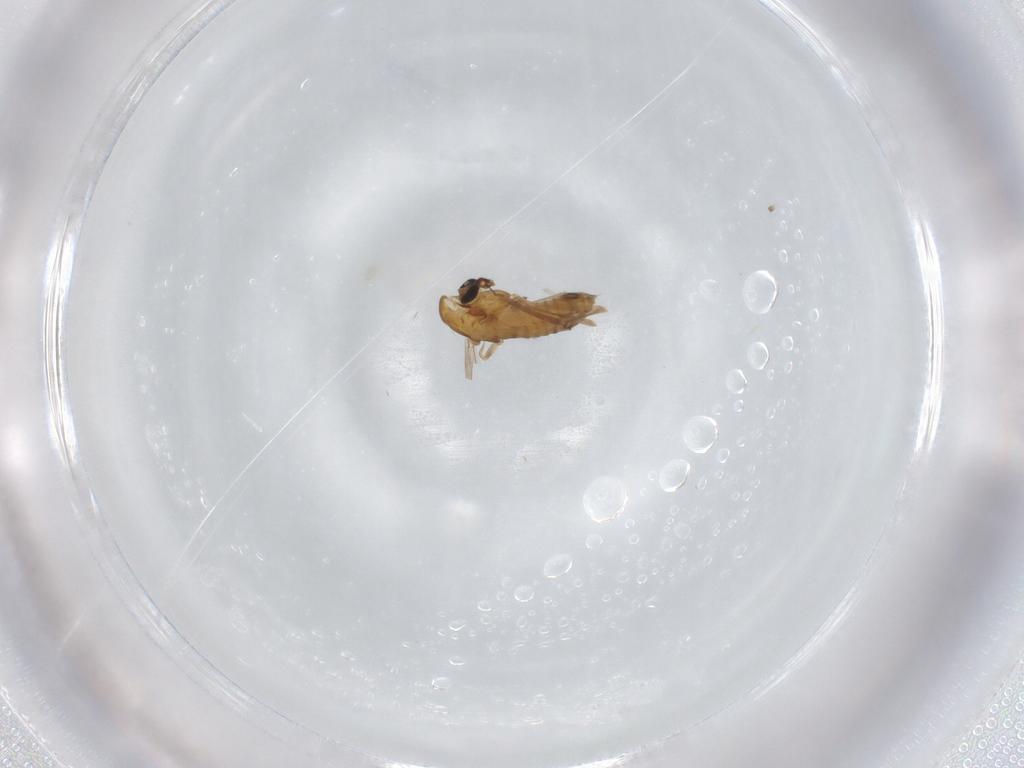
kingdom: Animalia
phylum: Arthropoda
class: Insecta
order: Diptera
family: Chironomidae
